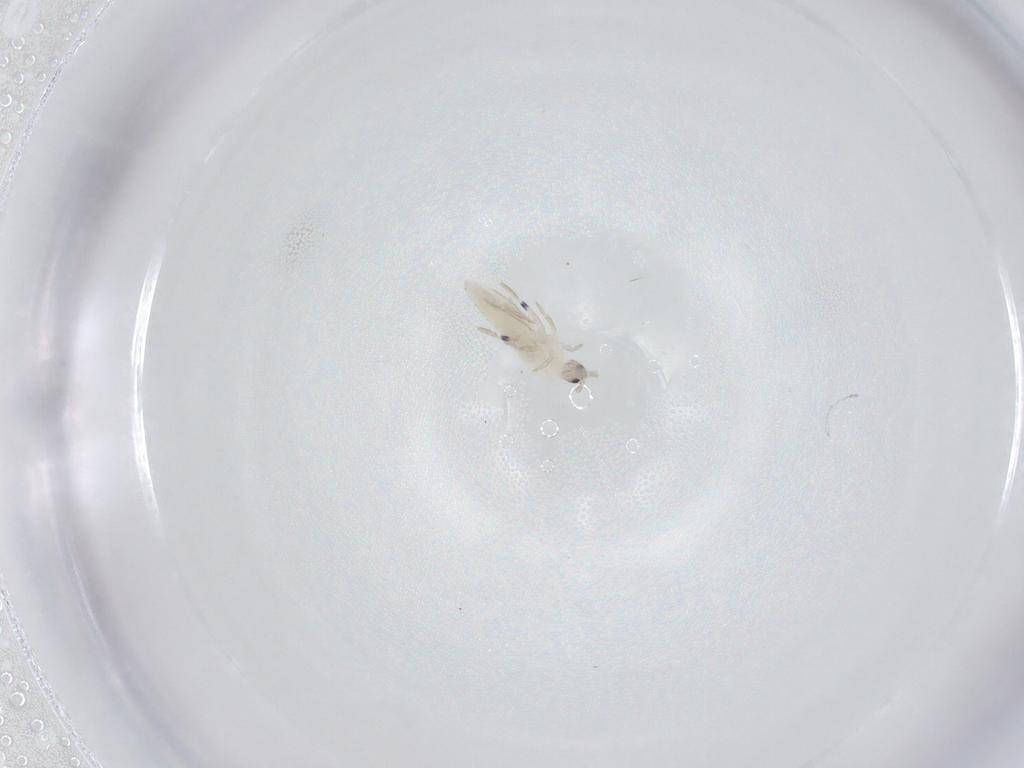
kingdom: Animalia
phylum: Arthropoda
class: Collembola
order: Entomobryomorpha
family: Entomobryidae
